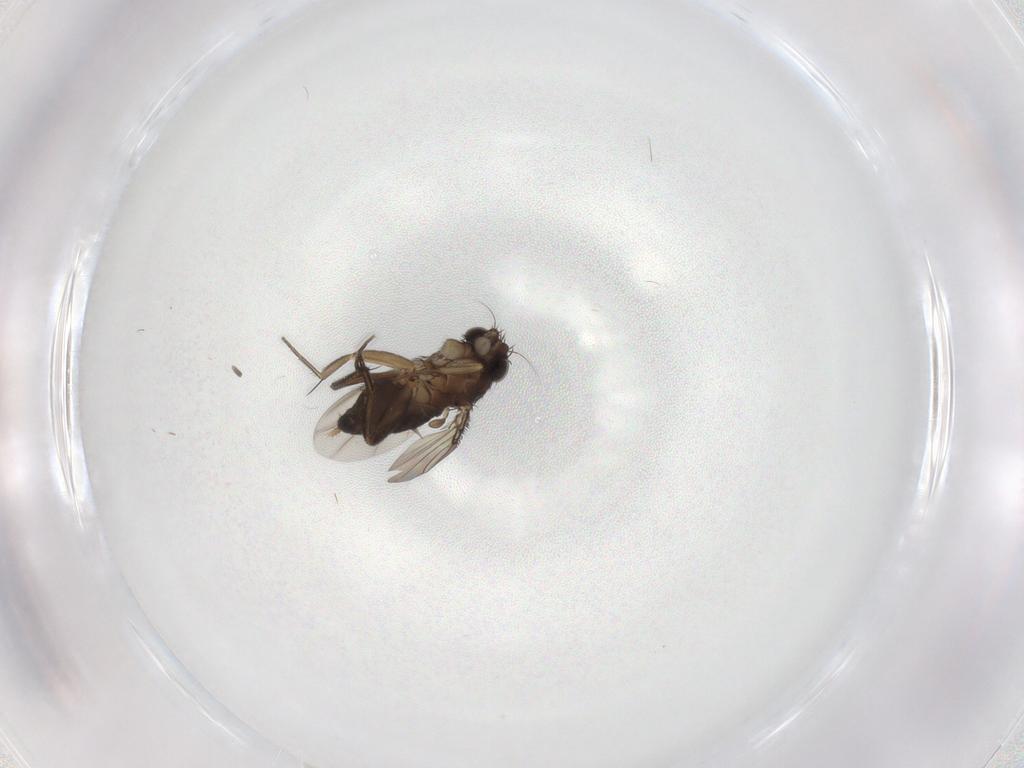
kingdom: Animalia
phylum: Arthropoda
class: Insecta
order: Diptera
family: Phoridae
